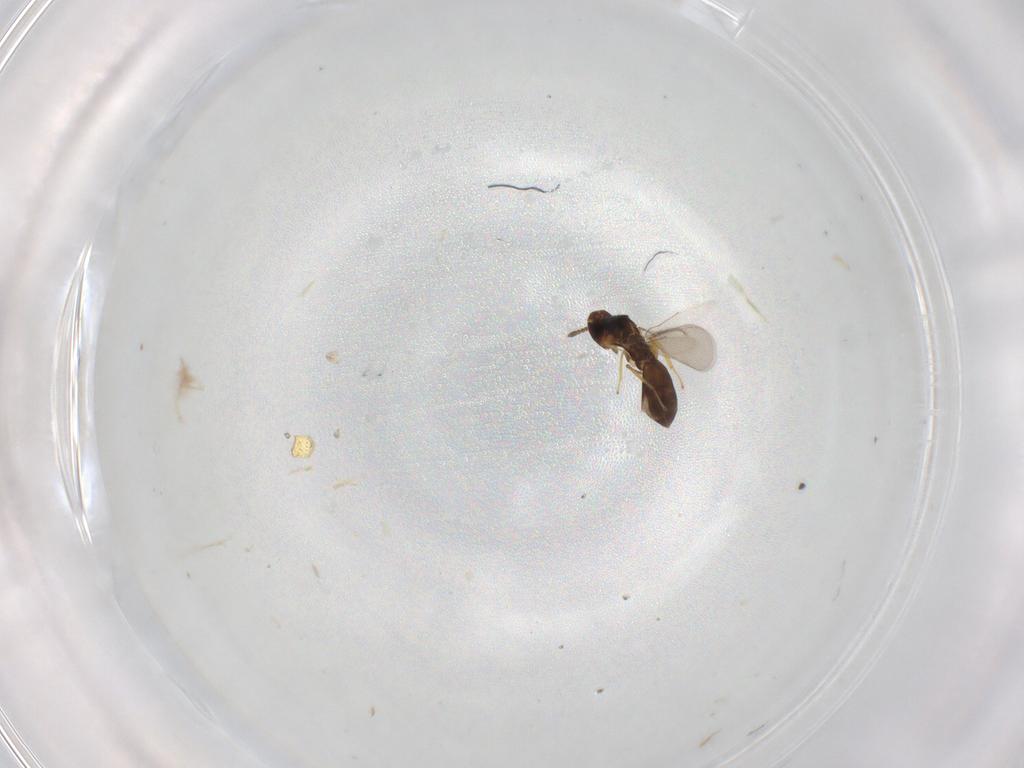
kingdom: Animalia
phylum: Arthropoda
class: Insecta
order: Hymenoptera
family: Eulophidae
